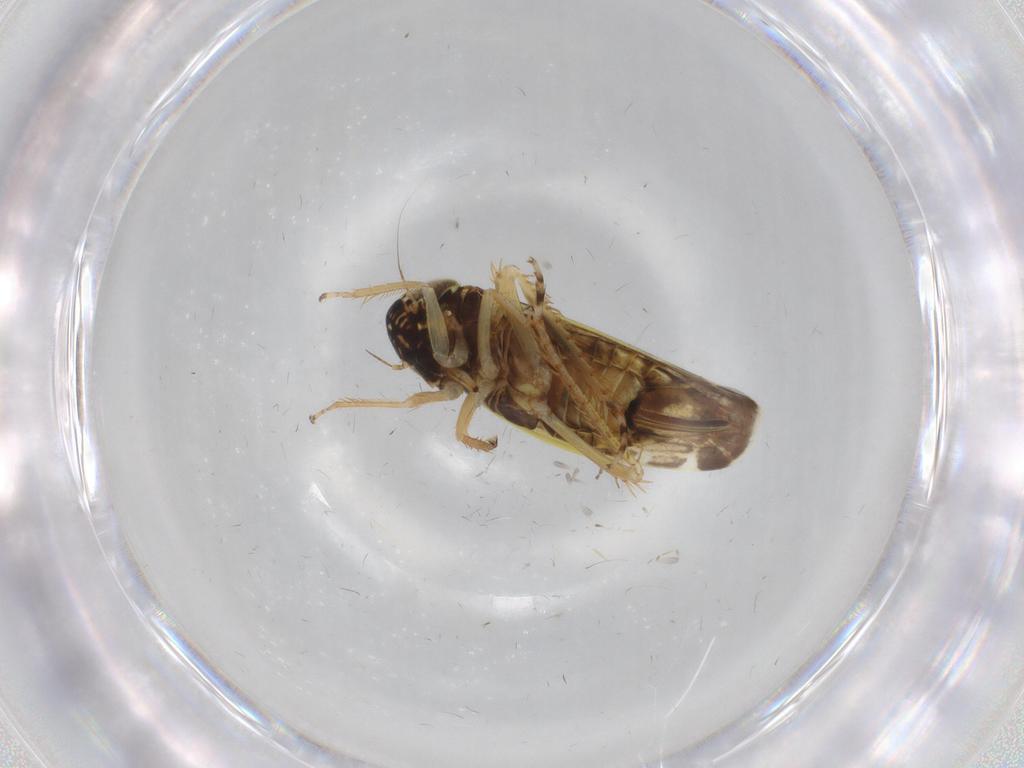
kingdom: Animalia
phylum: Arthropoda
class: Insecta
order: Hemiptera
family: Cicadellidae
